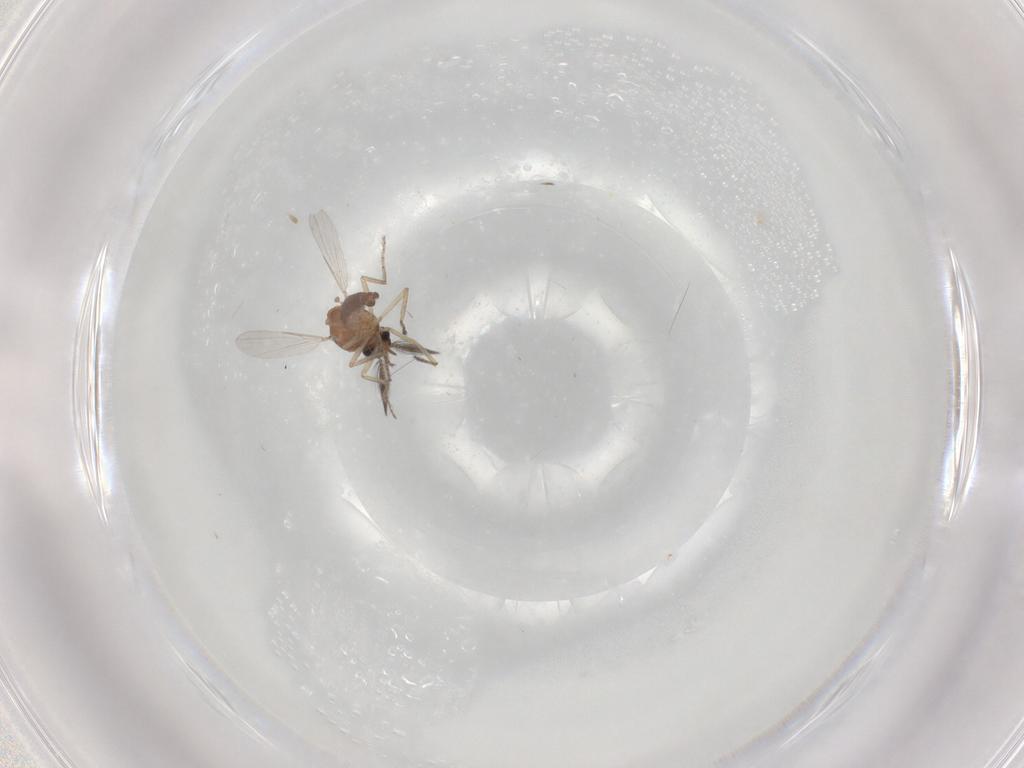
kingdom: Animalia
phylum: Arthropoda
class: Insecta
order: Diptera
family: Ceratopogonidae
